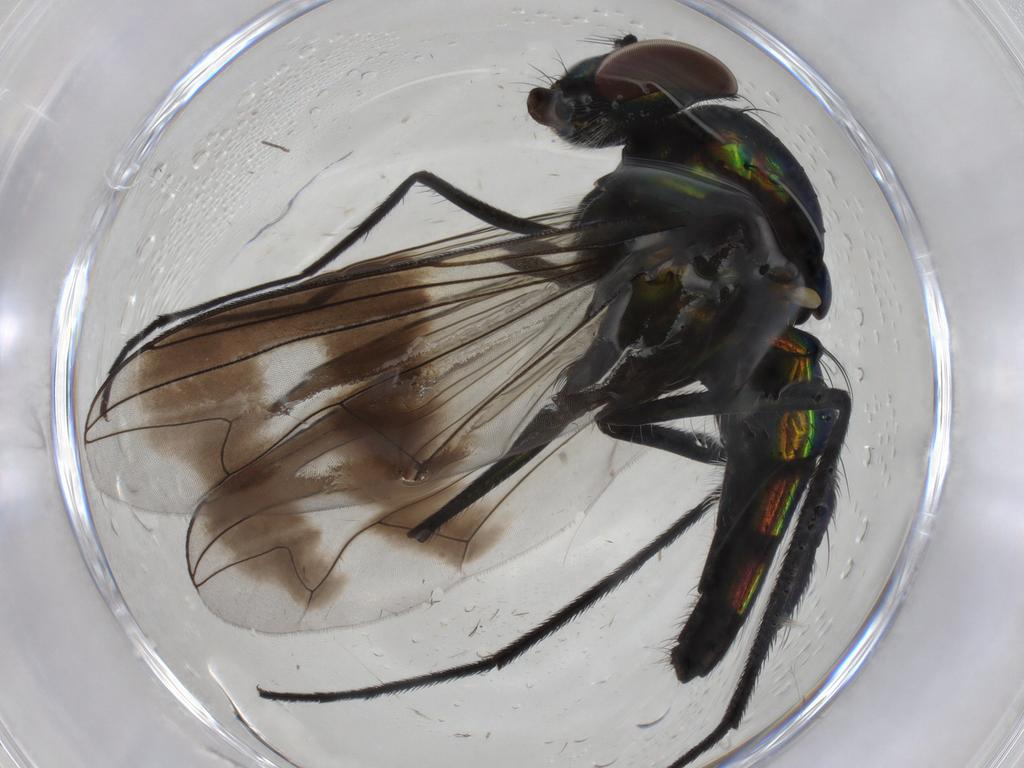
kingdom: Animalia
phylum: Arthropoda
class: Insecta
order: Diptera
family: Dolichopodidae
